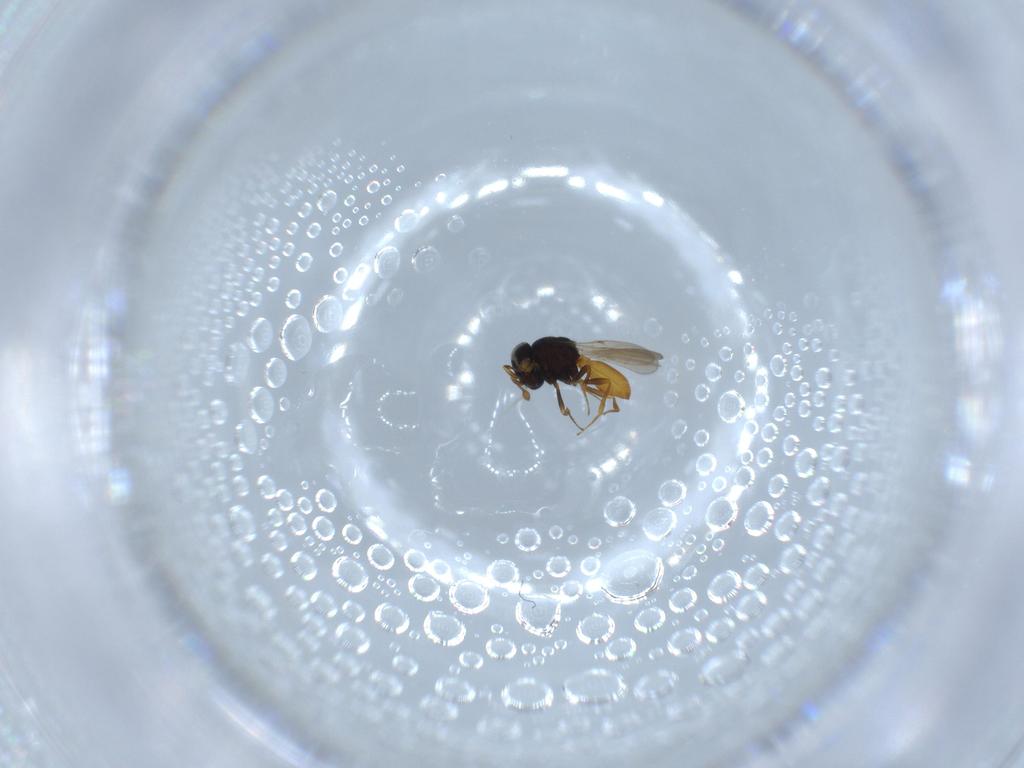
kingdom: Animalia
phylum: Arthropoda
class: Insecta
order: Hymenoptera
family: Scelionidae
